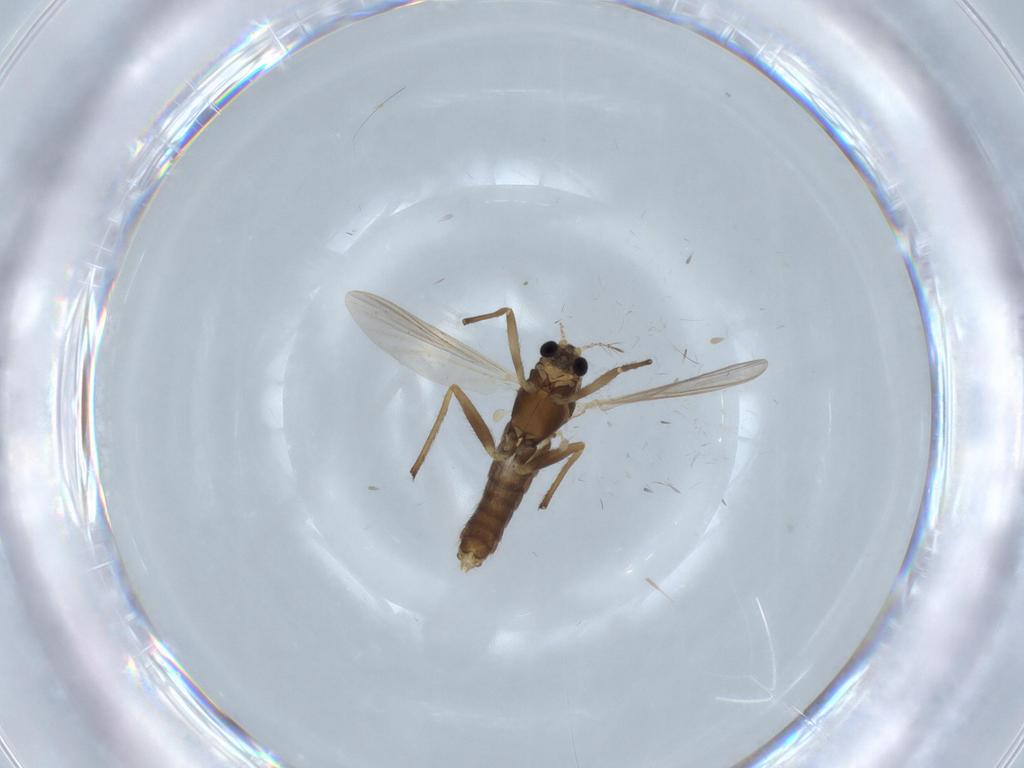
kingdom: Animalia
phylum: Arthropoda
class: Insecta
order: Diptera
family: Chironomidae
